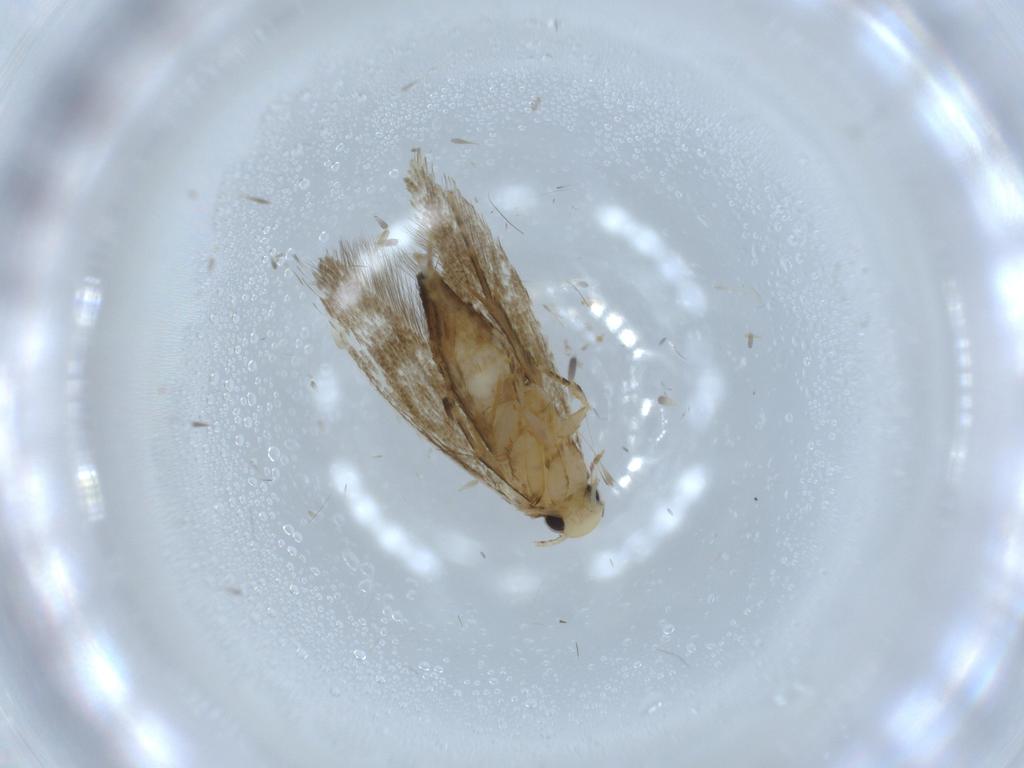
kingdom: Animalia
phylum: Arthropoda
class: Insecta
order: Lepidoptera
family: Tineidae
